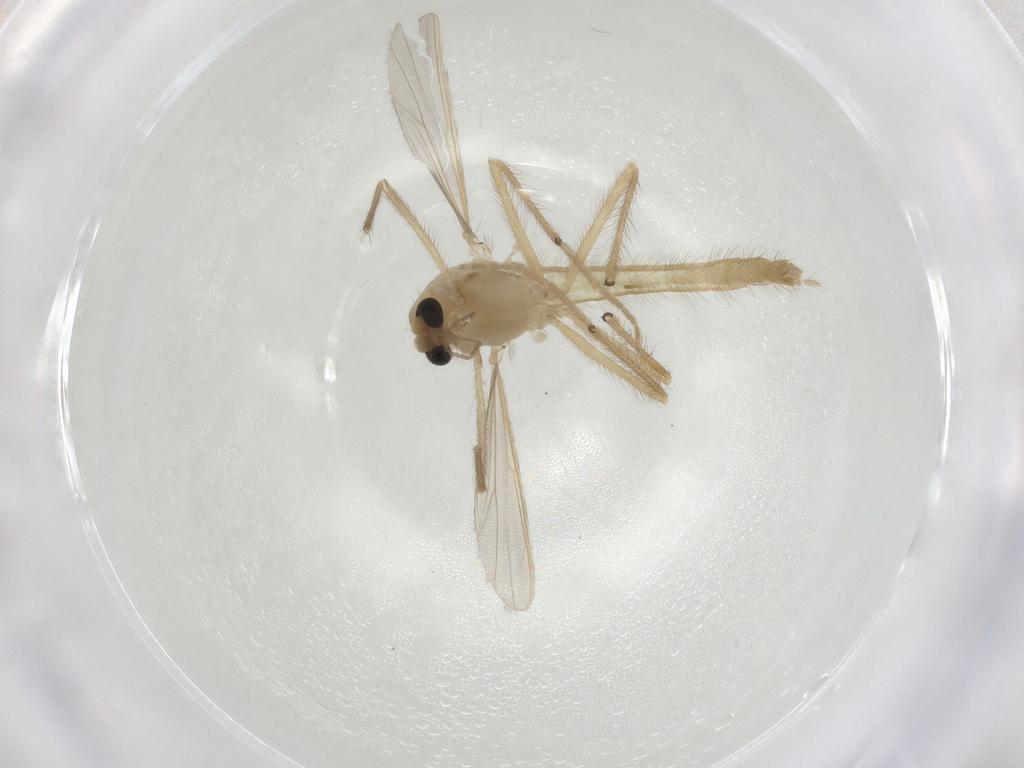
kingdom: Animalia
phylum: Arthropoda
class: Insecta
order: Diptera
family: Chironomidae
